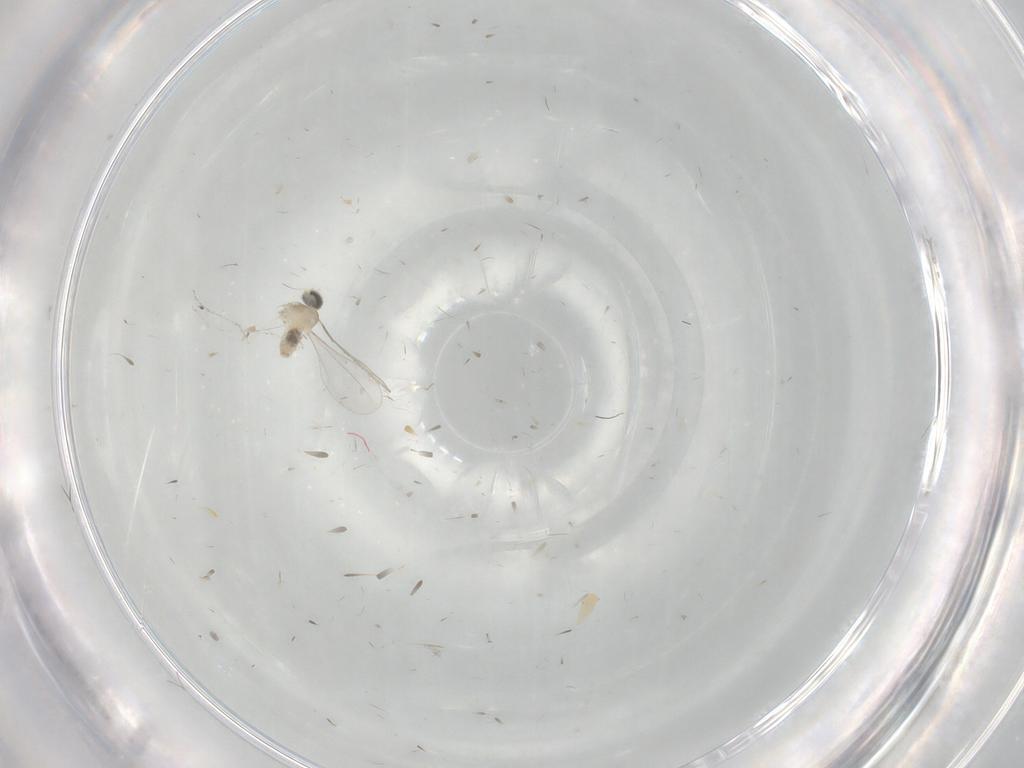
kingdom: Animalia
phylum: Arthropoda
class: Insecta
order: Diptera
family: Cecidomyiidae
